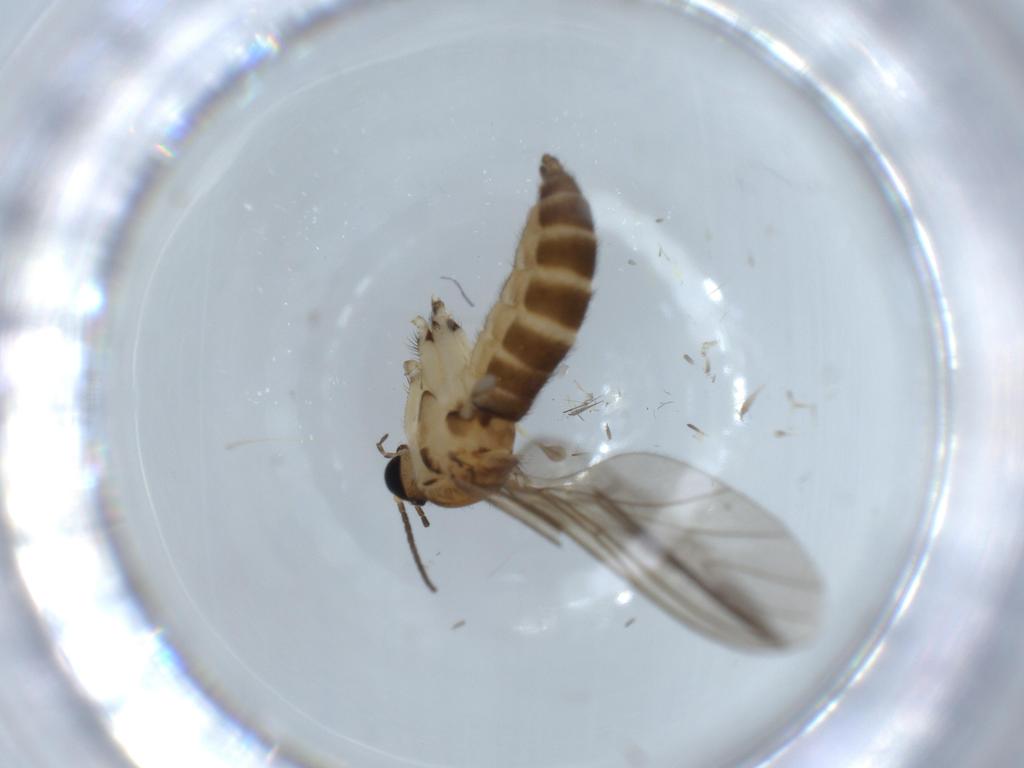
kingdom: Animalia
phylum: Arthropoda
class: Insecta
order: Diptera
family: Sciaridae
